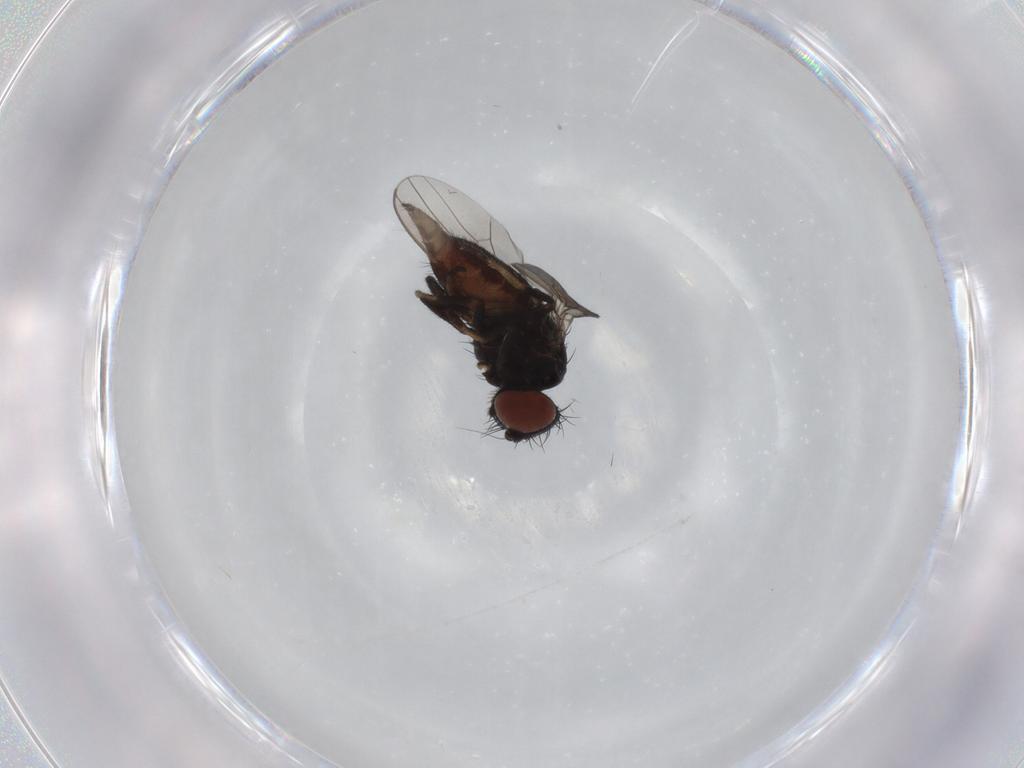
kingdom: Animalia
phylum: Arthropoda
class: Insecta
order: Diptera
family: Milichiidae
